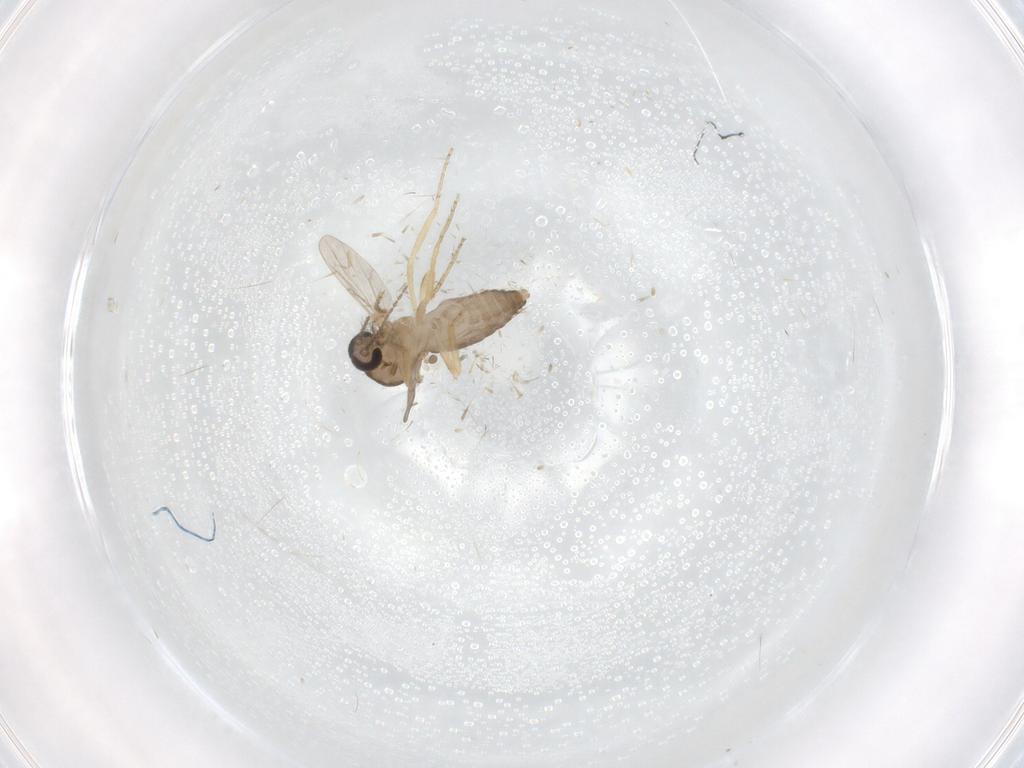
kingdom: Animalia
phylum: Arthropoda
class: Insecta
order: Diptera
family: Ceratopogonidae
